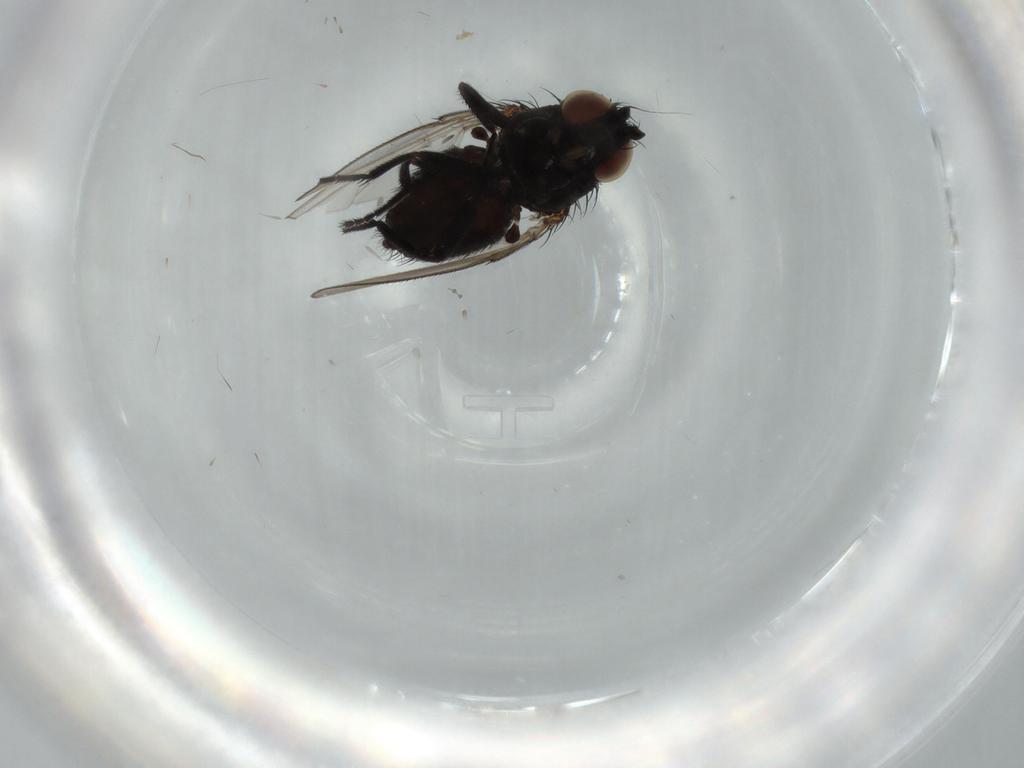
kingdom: Animalia
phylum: Arthropoda
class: Insecta
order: Diptera
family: Milichiidae
